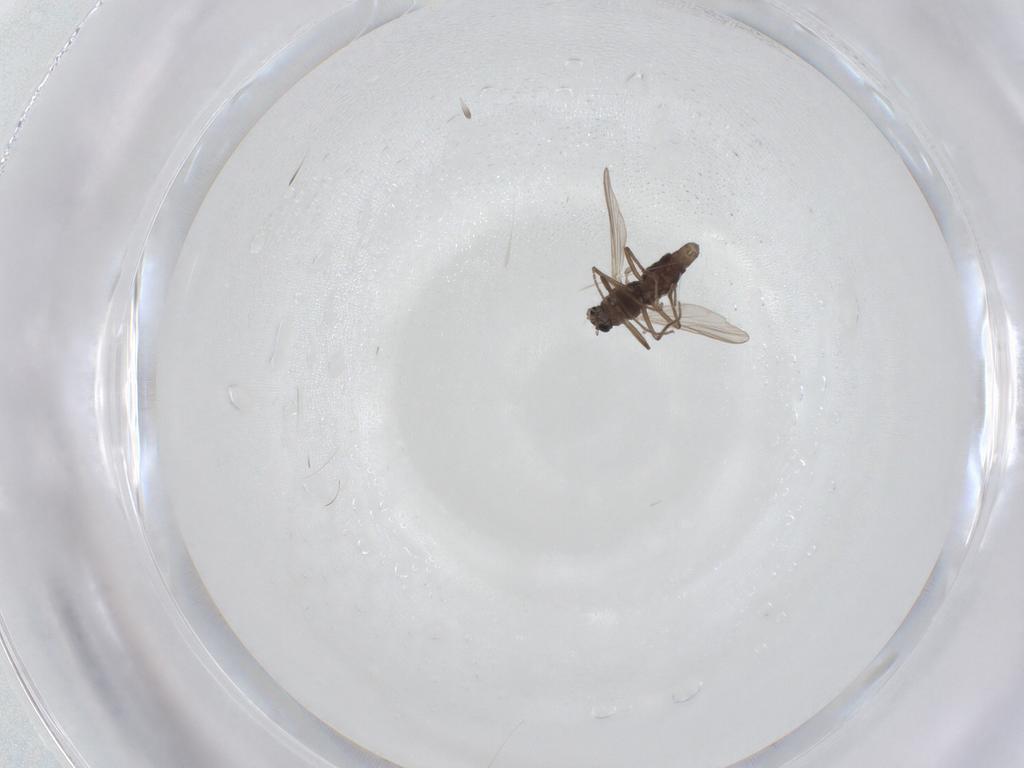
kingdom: Animalia
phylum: Arthropoda
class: Insecta
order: Diptera
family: Chironomidae
